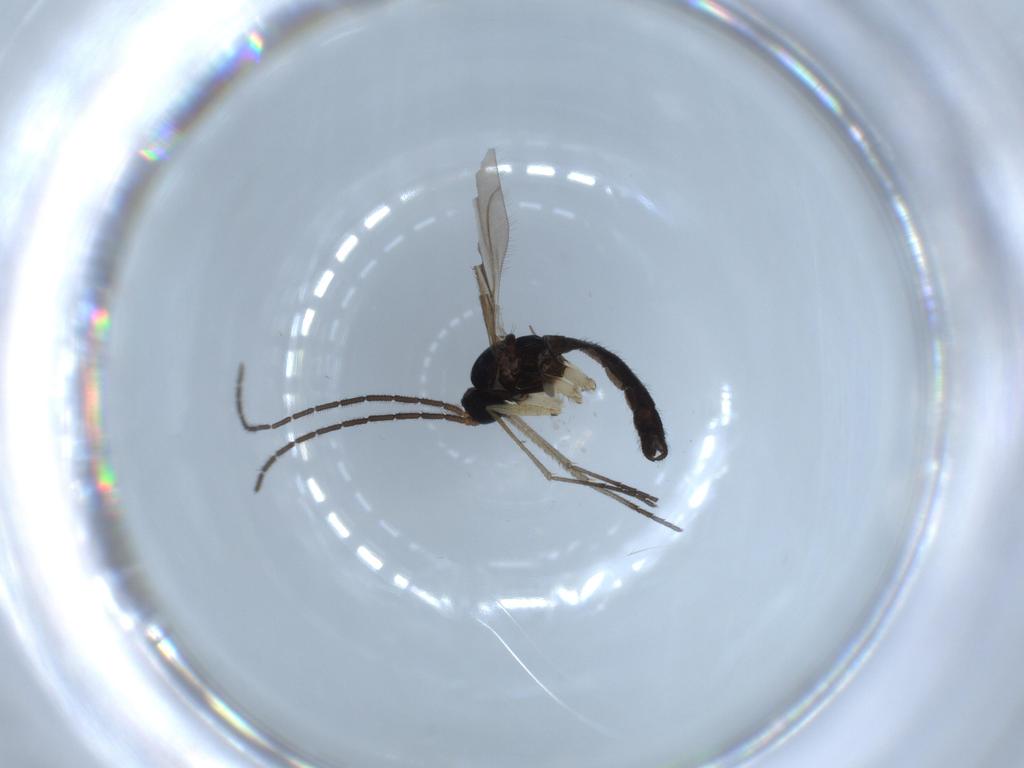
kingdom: Animalia
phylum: Arthropoda
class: Insecta
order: Diptera
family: Sciaridae
